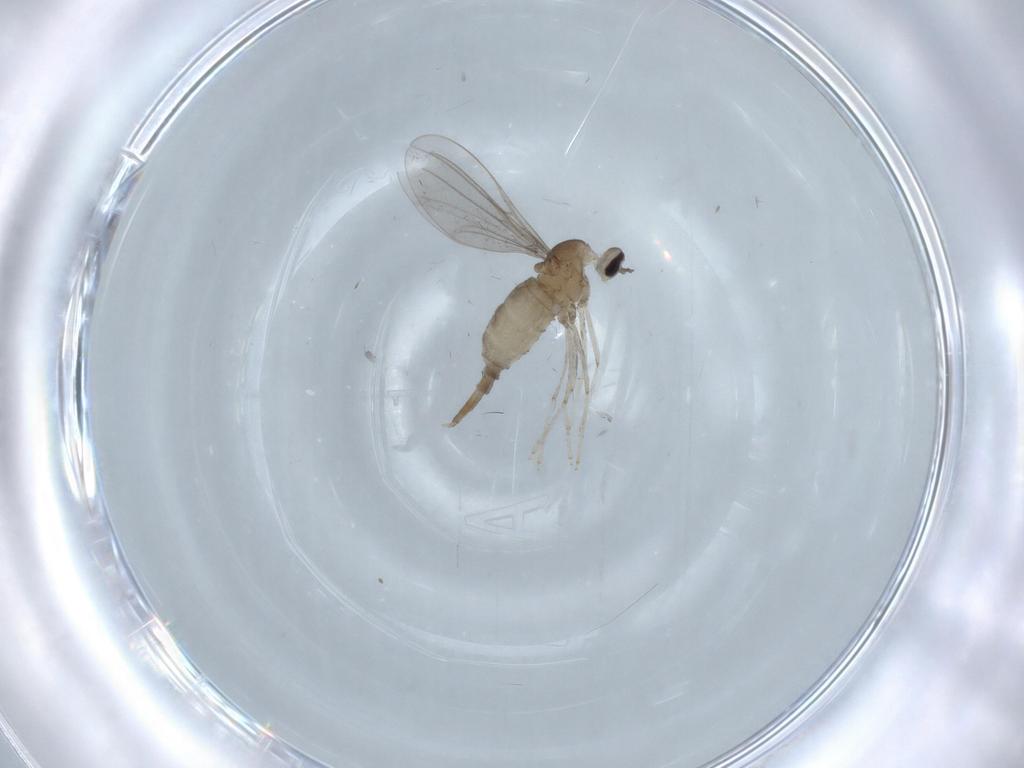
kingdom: Animalia
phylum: Arthropoda
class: Insecta
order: Diptera
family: Cecidomyiidae
